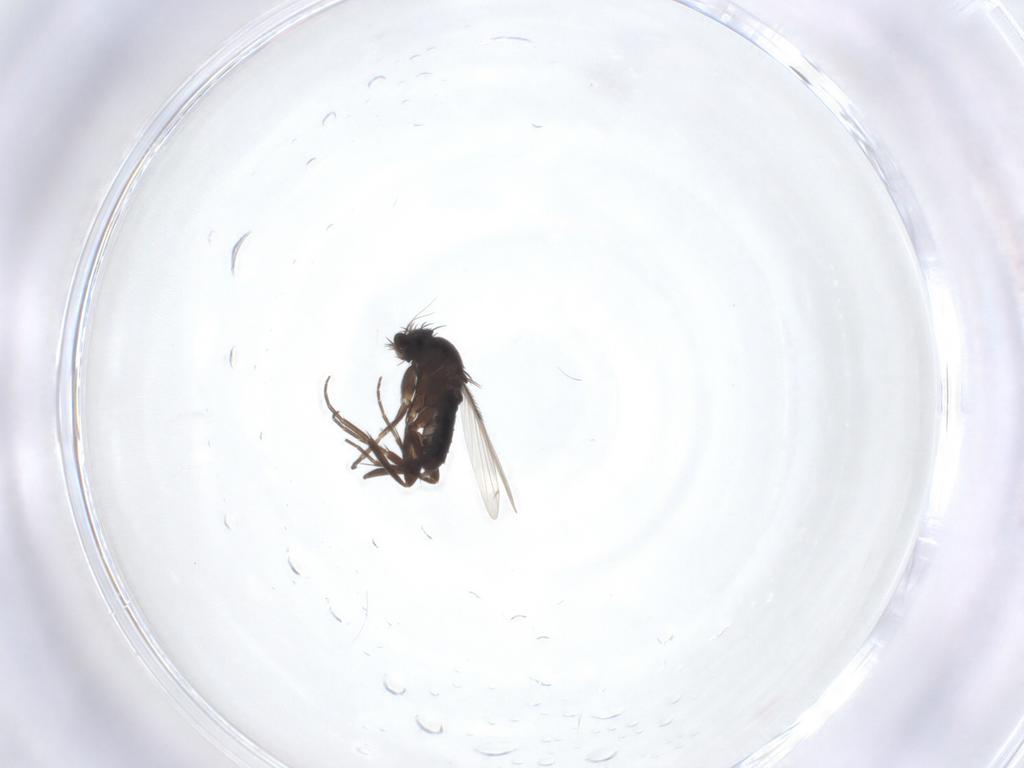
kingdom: Animalia
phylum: Arthropoda
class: Insecta
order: Diptera
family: Phoridae
